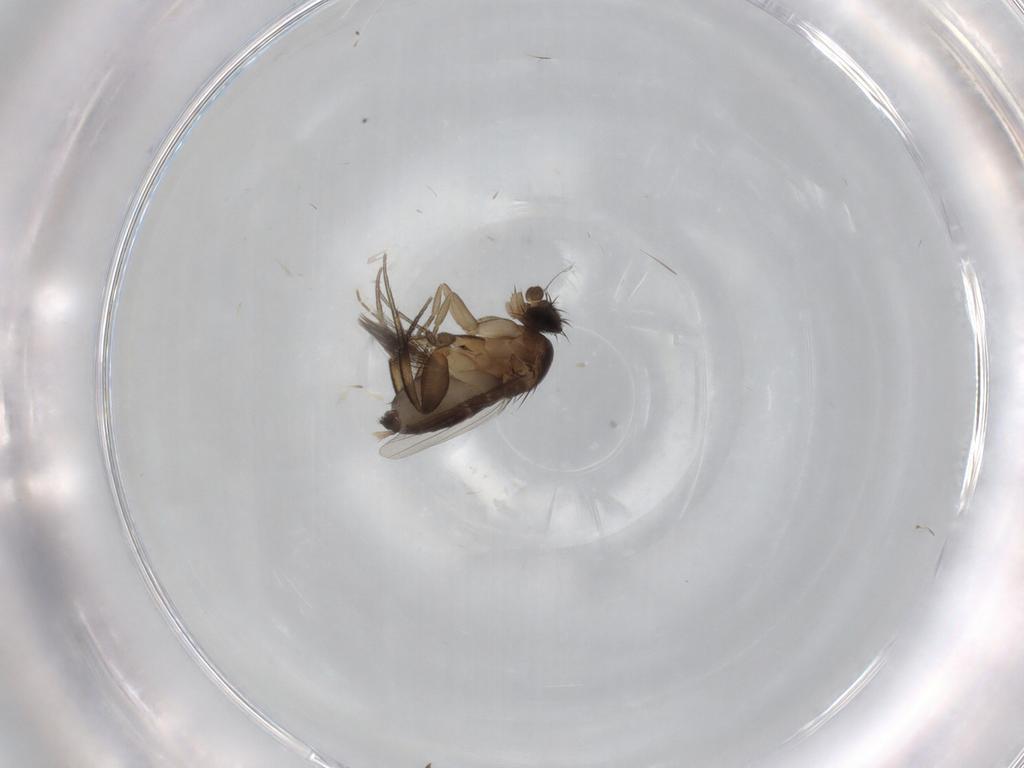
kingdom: Animalia
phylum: Arthropoda
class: Insecta
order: Diptera
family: Phoridae
